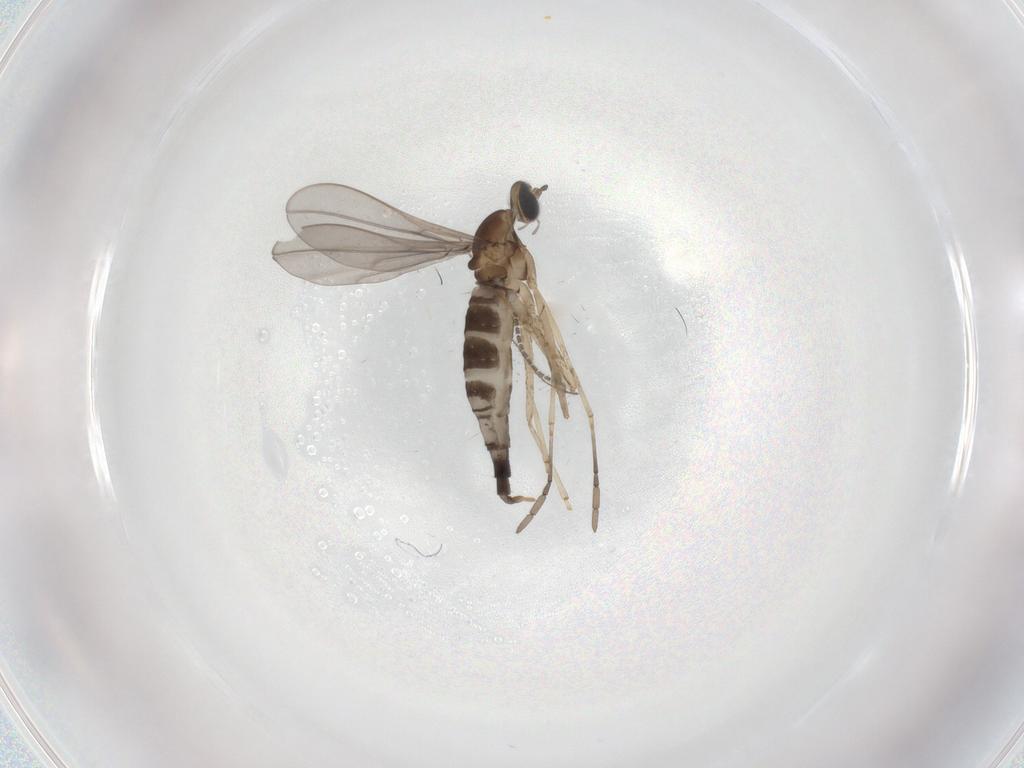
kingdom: Animalia
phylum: Arthropoda
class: Insecta
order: Diptera
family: Cecidomyiidae
